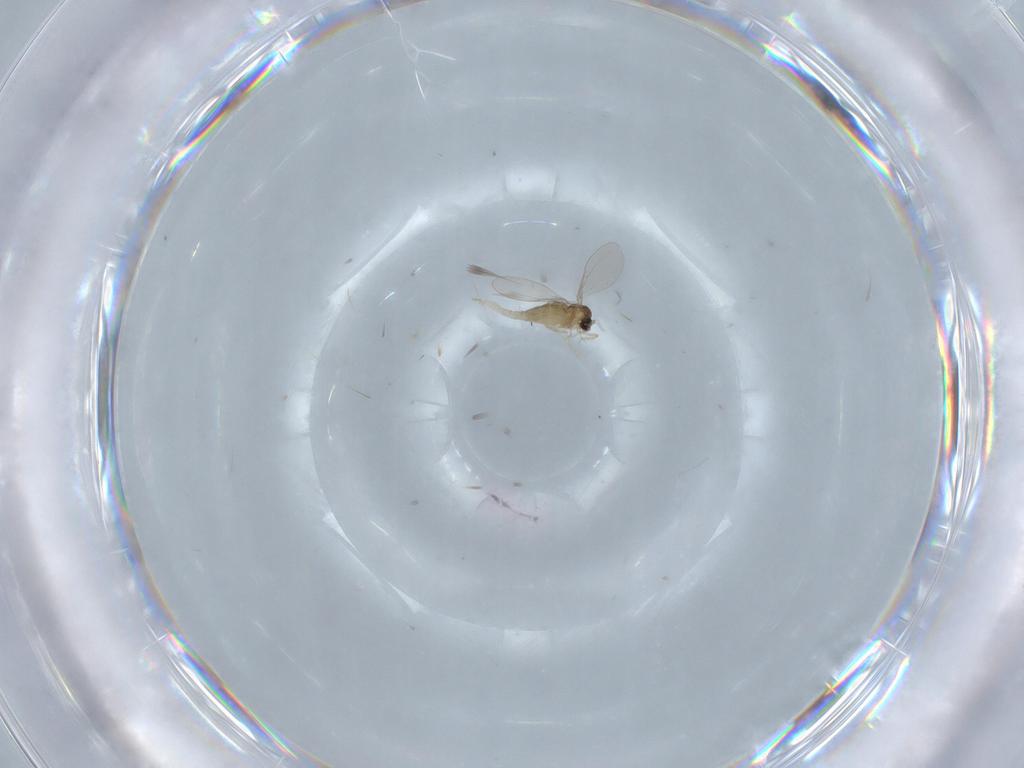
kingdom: Animalia
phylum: Arthropoda
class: Insecta
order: Diptera
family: Cecidomyiidae
